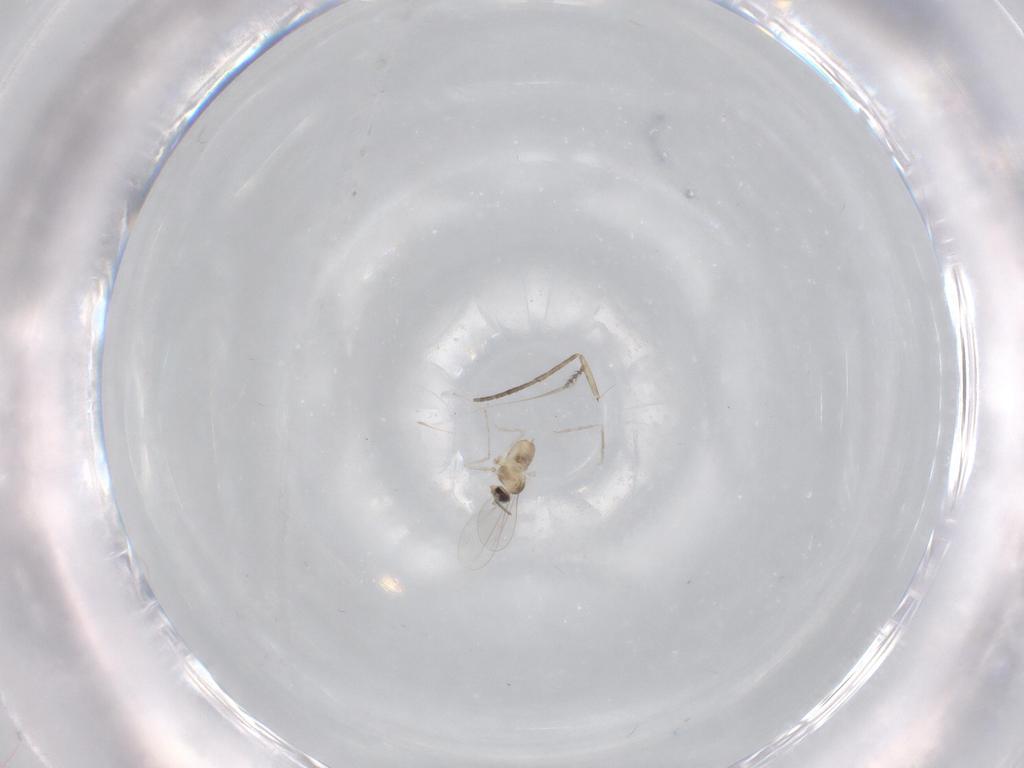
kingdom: Animalia
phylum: Arthropoda
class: Insecta
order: Diptera
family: Cecidomyiidae
